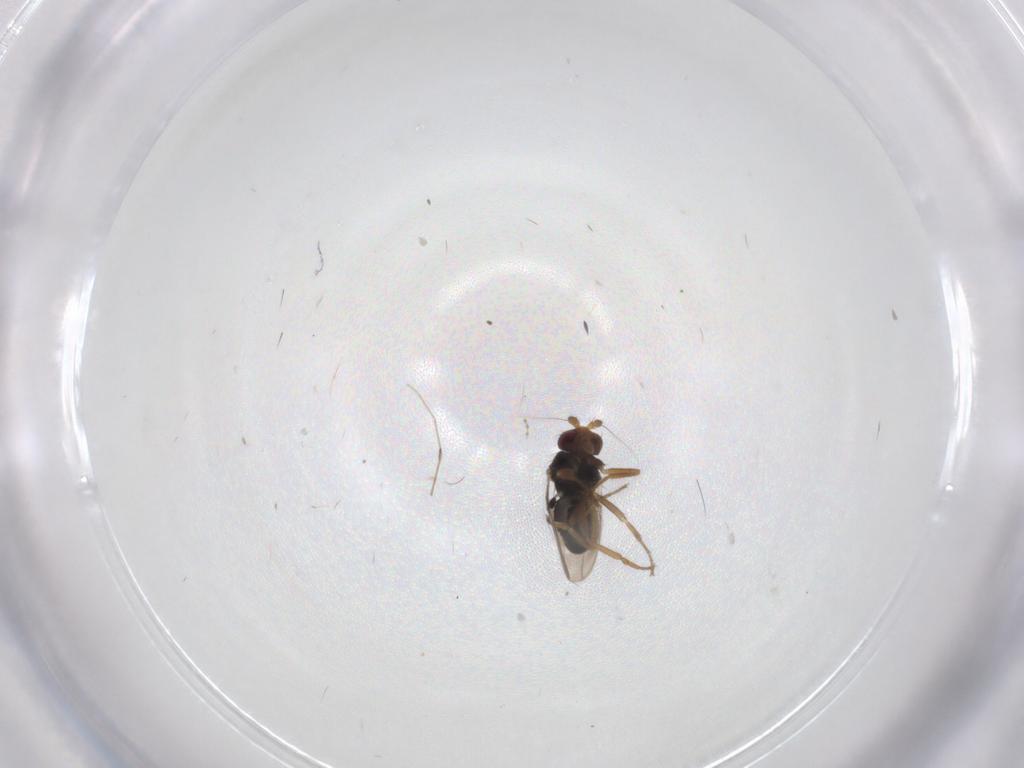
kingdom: Animalia
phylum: Arthropoda
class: Insecta
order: Diptera
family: Sphaeroceridae
